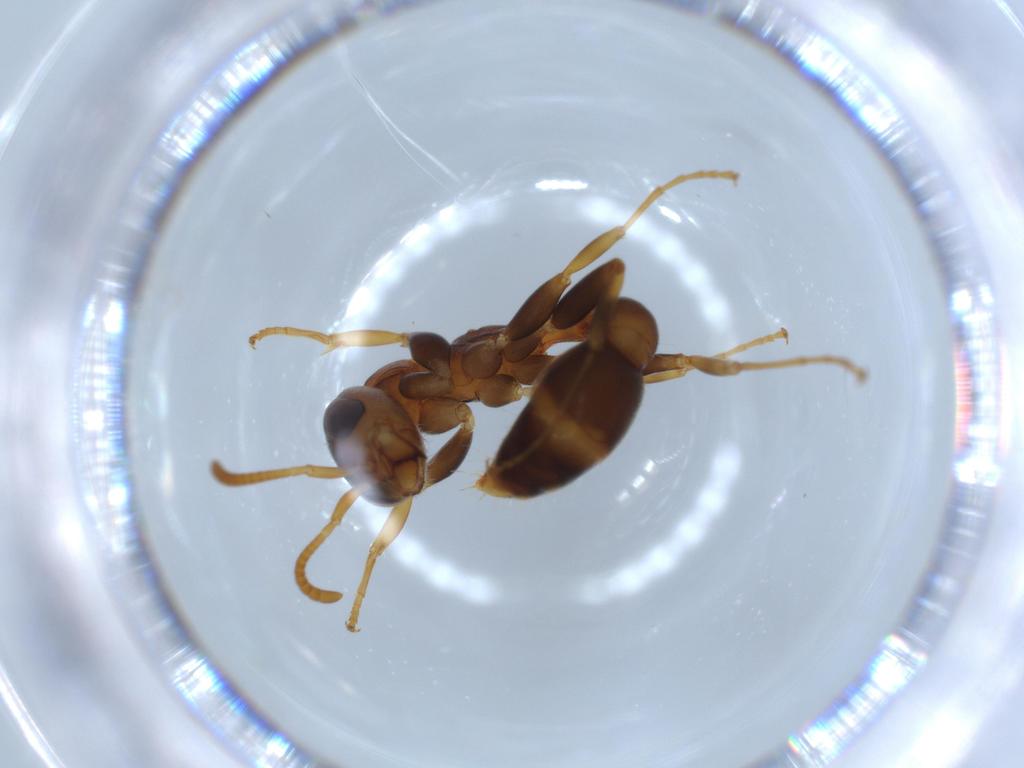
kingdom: Animalia
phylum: Arthropoda
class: Insecta
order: Hymenoptera
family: Formicidae
